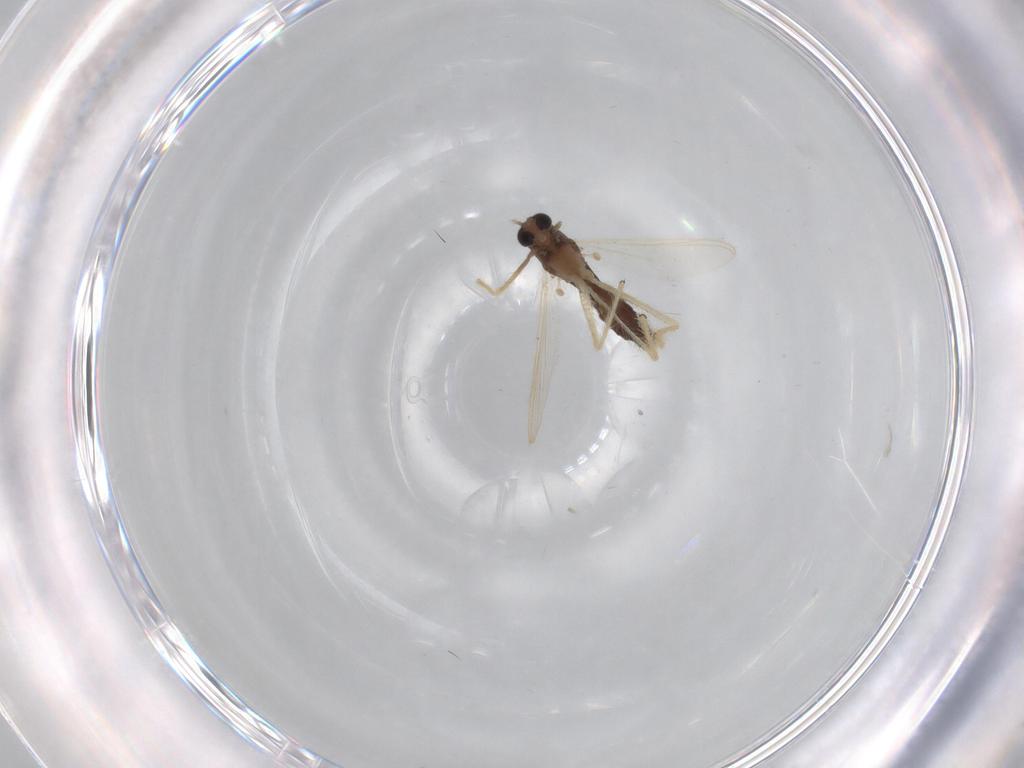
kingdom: Animalia
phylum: Arthropoda
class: Insecta
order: Diptera
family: Chironomidae
